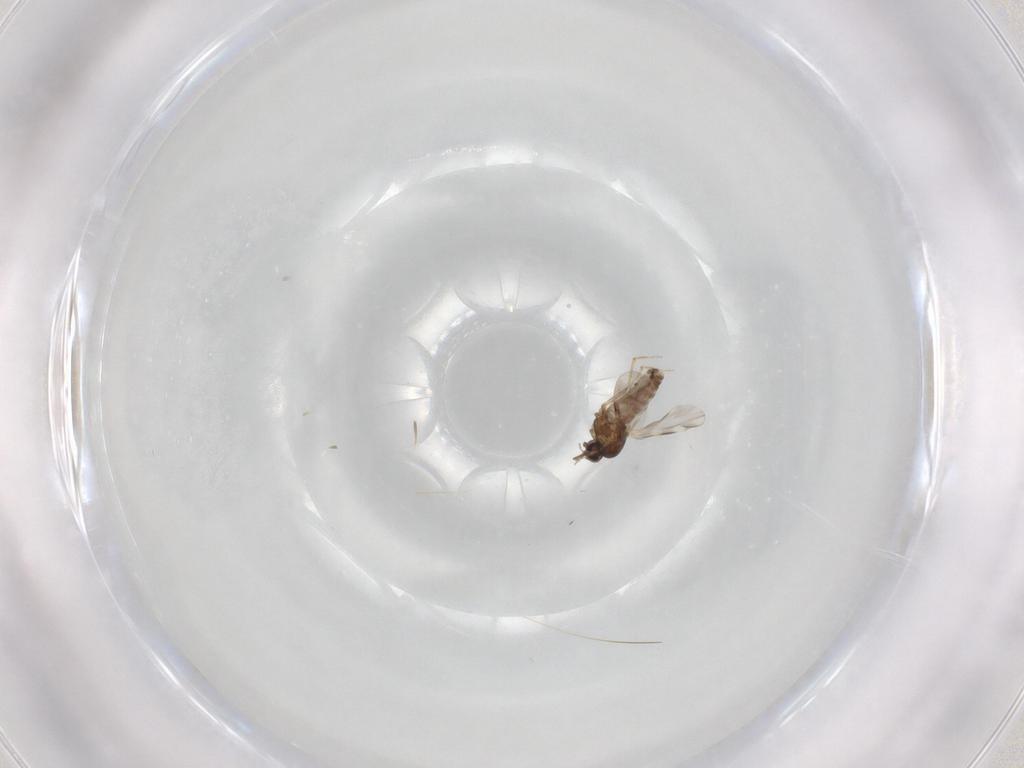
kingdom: Animalia
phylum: Arthropoda
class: Insecta
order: Diptera
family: Ceratopogonidae
